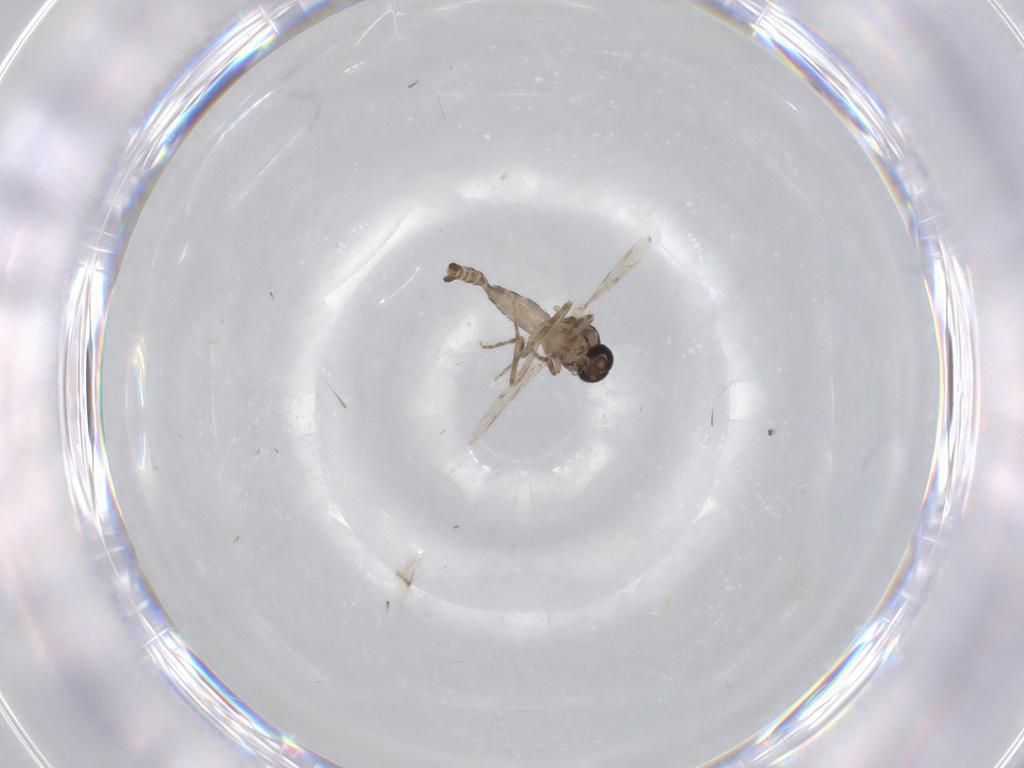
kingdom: Animalia
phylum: Arthropoda
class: Insecta
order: Diptera
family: Ceratopogonidae
